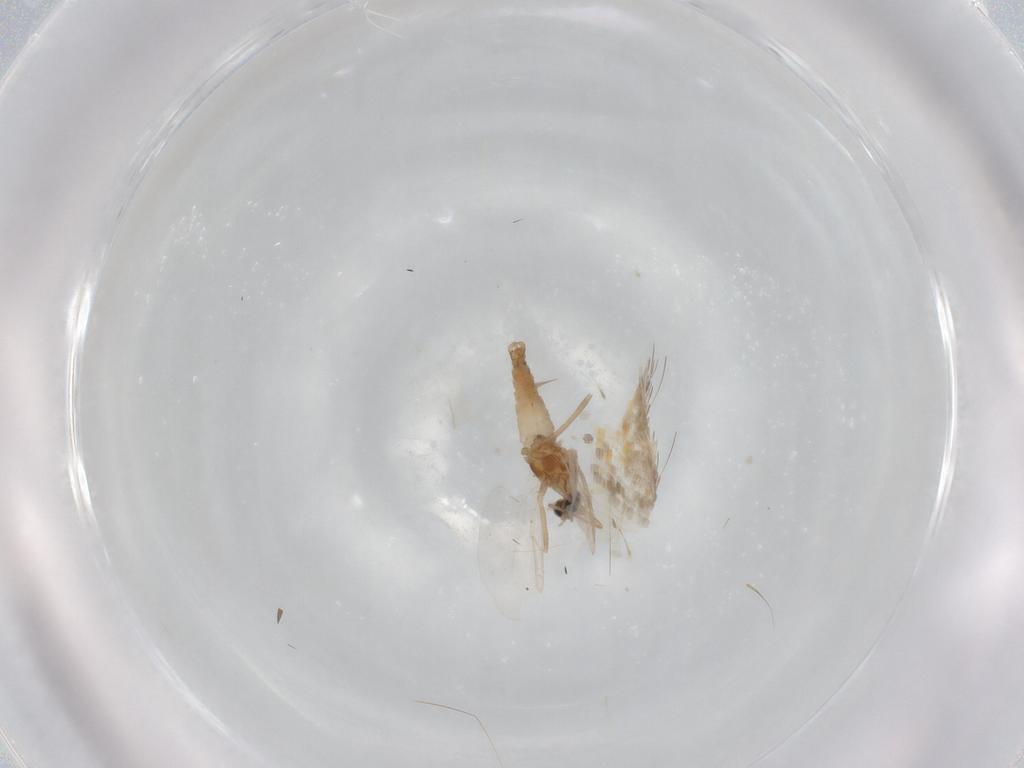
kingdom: Animalia
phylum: Arthropoda
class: Insecta
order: Diptera
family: Cecidomyiidae
